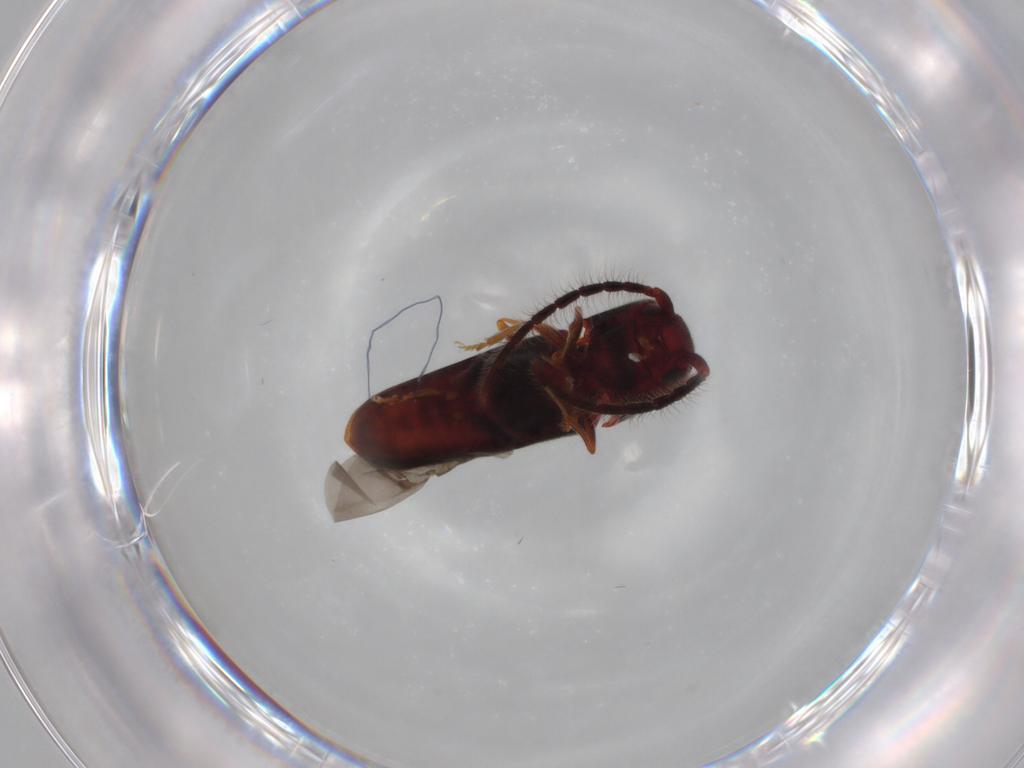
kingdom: Animalia
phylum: Arthropoda
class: Insecta
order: Coleoptera
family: Eucnemidae
